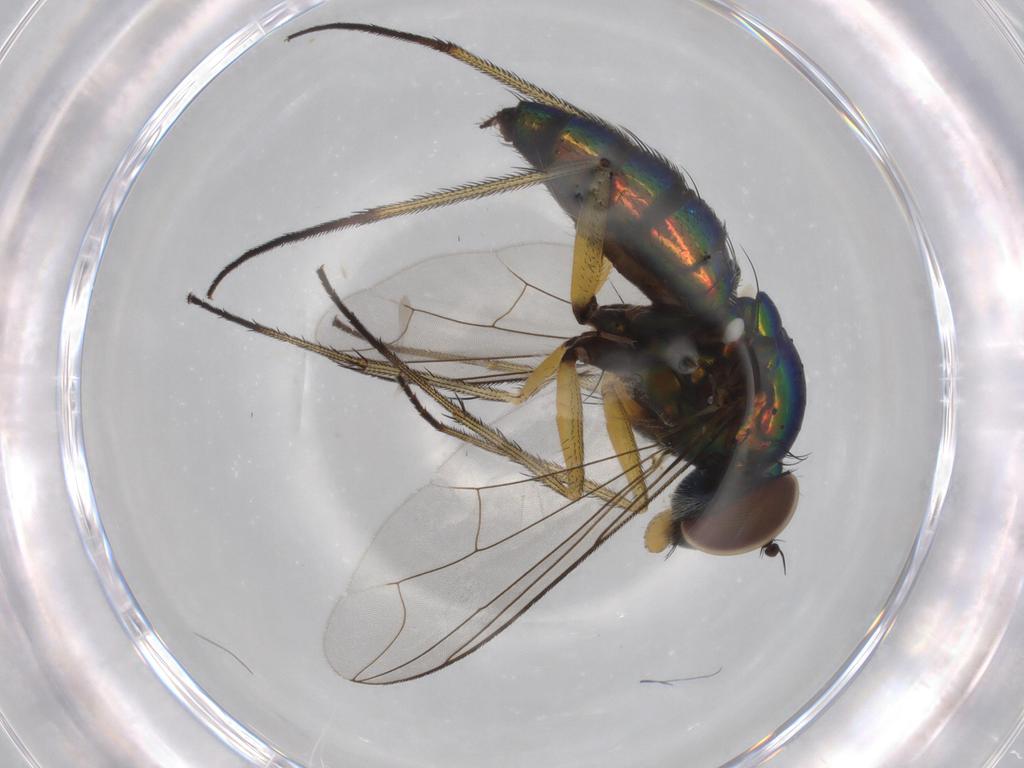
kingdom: Animalia
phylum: Arthropoda
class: Insecta
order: Diptera
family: Dolichopodidae
